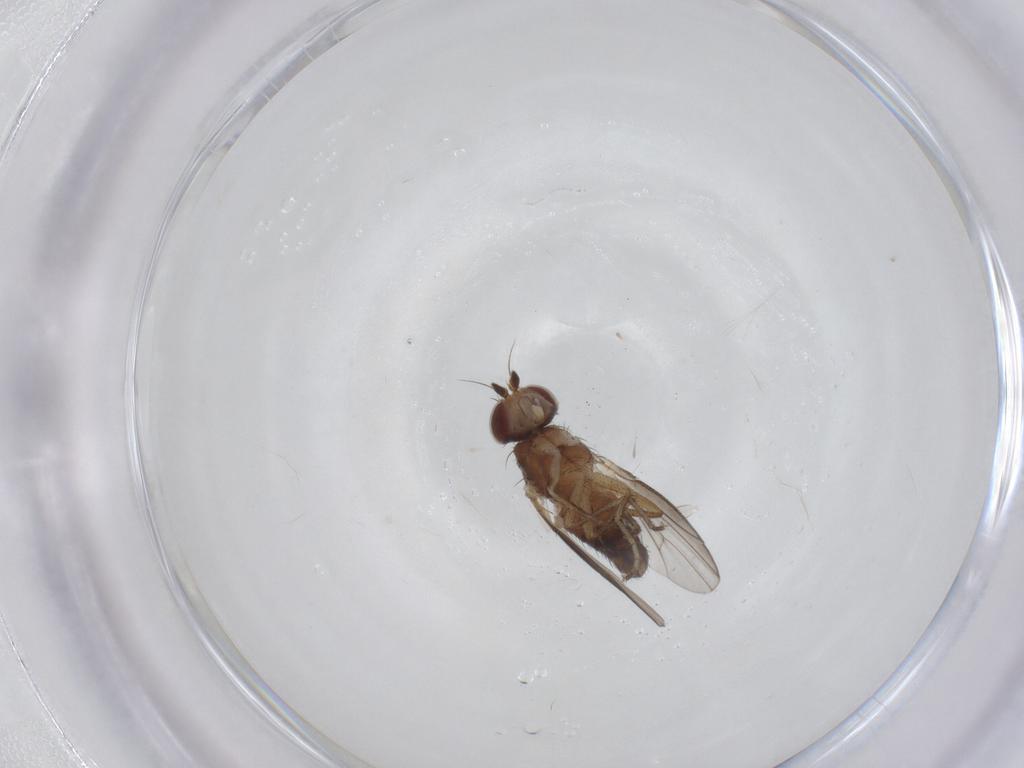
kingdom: Animalia
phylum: Arthropoda
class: Insecta
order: Diptera
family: Heleomyzidae
